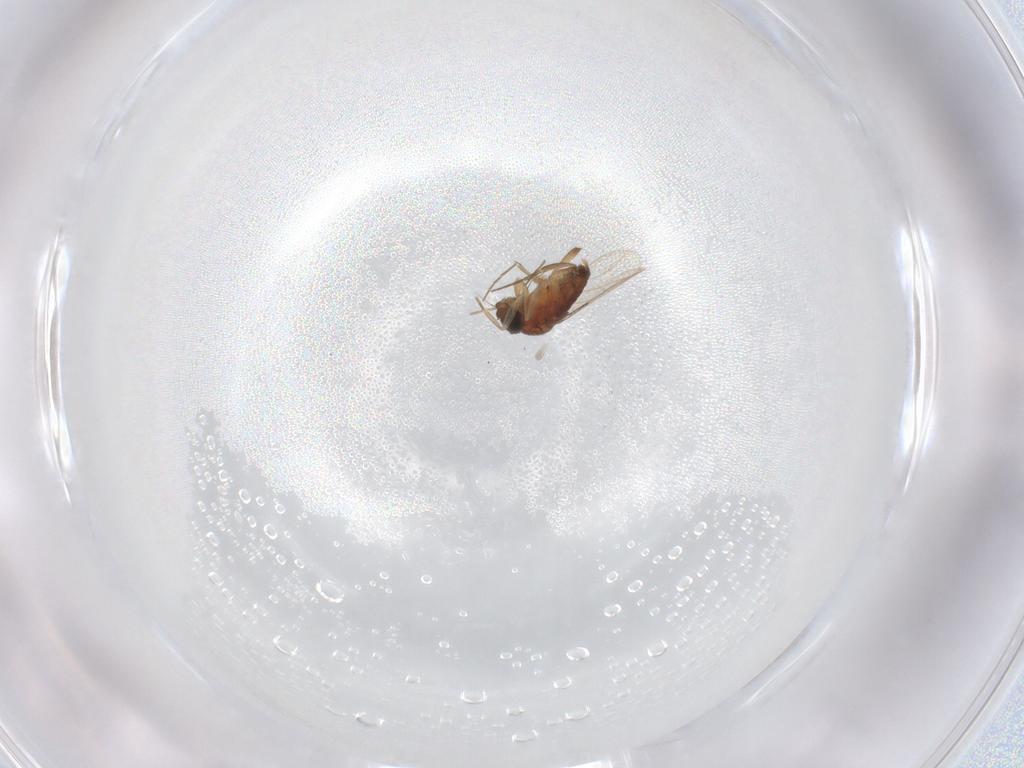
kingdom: Animalia
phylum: Arthropoda
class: Insecta
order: Diptera
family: Phoridae
